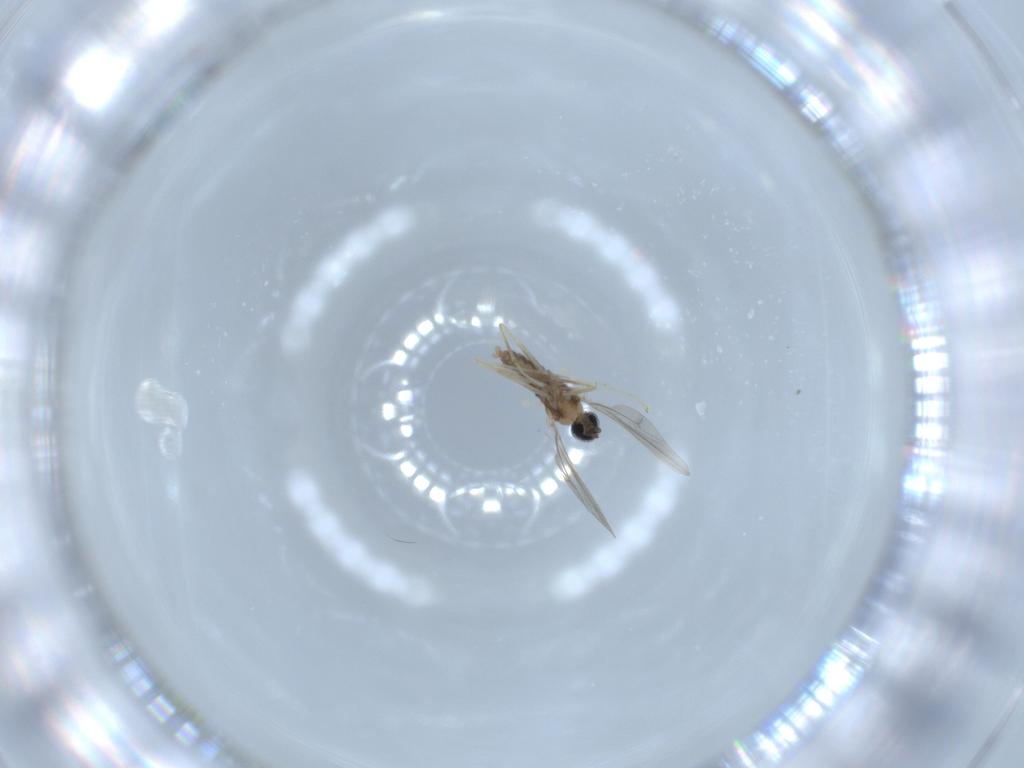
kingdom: Animalia
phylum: Arthropoda
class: Insecta
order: Diptera
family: Cecidomyiidae
